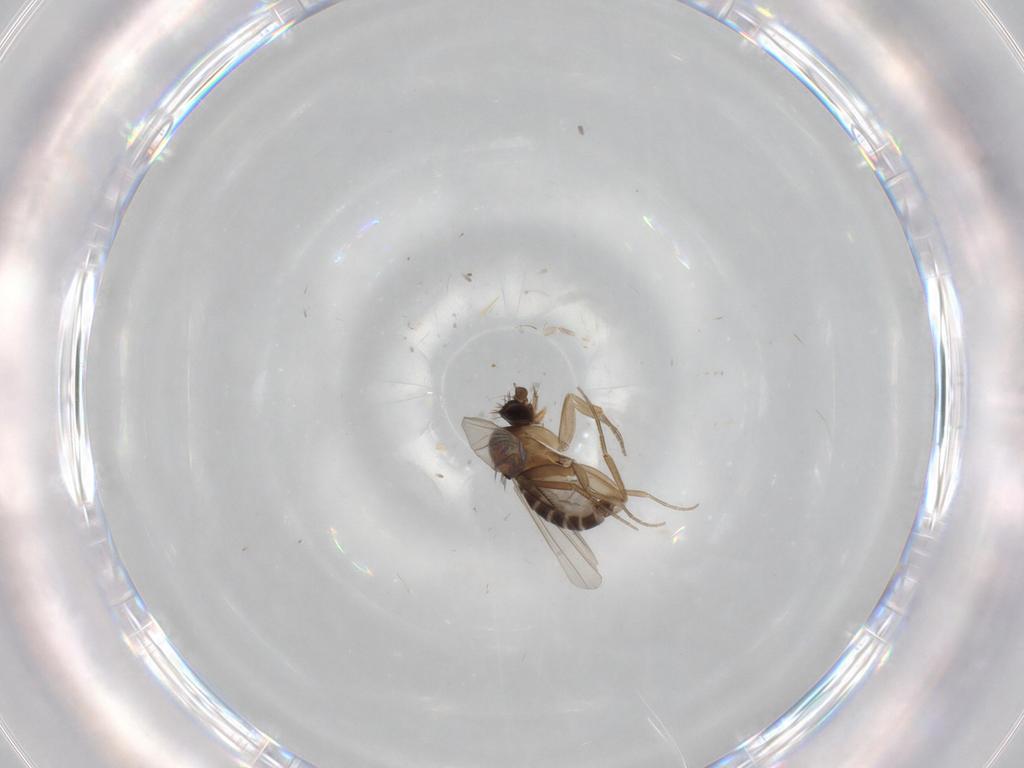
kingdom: Animalia
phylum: Arthropoda
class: Insecta
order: Diptera
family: Phoridae
